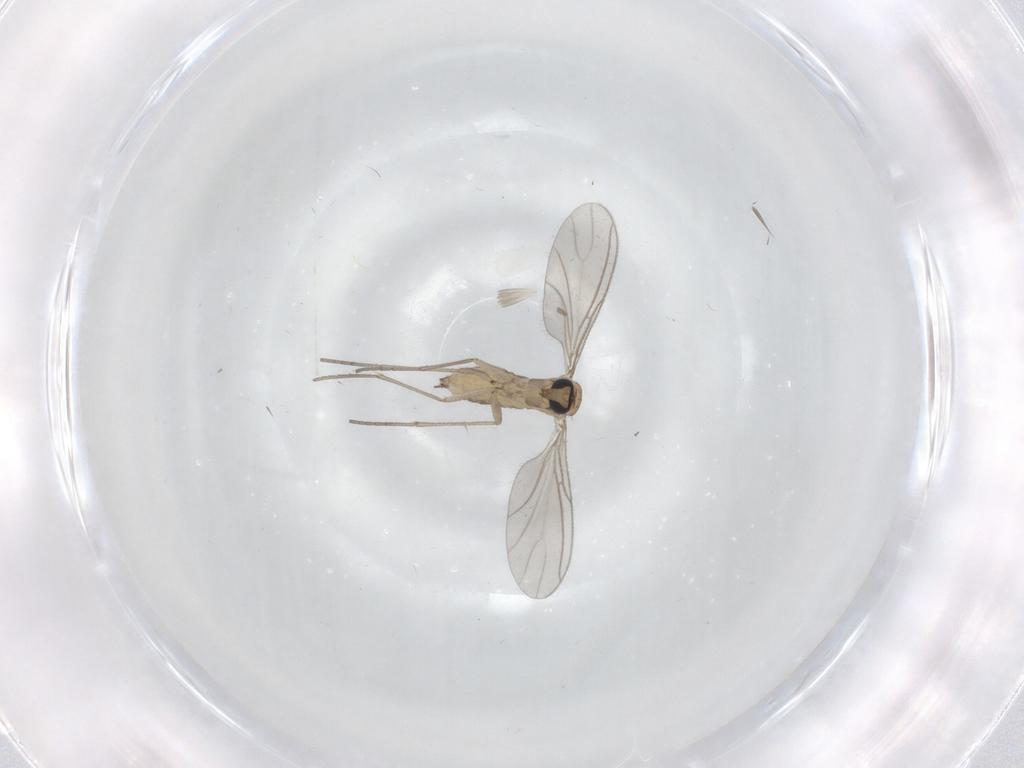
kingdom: Animalia
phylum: Arthropoda
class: Insecta
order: Diptera
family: Sciaridae
